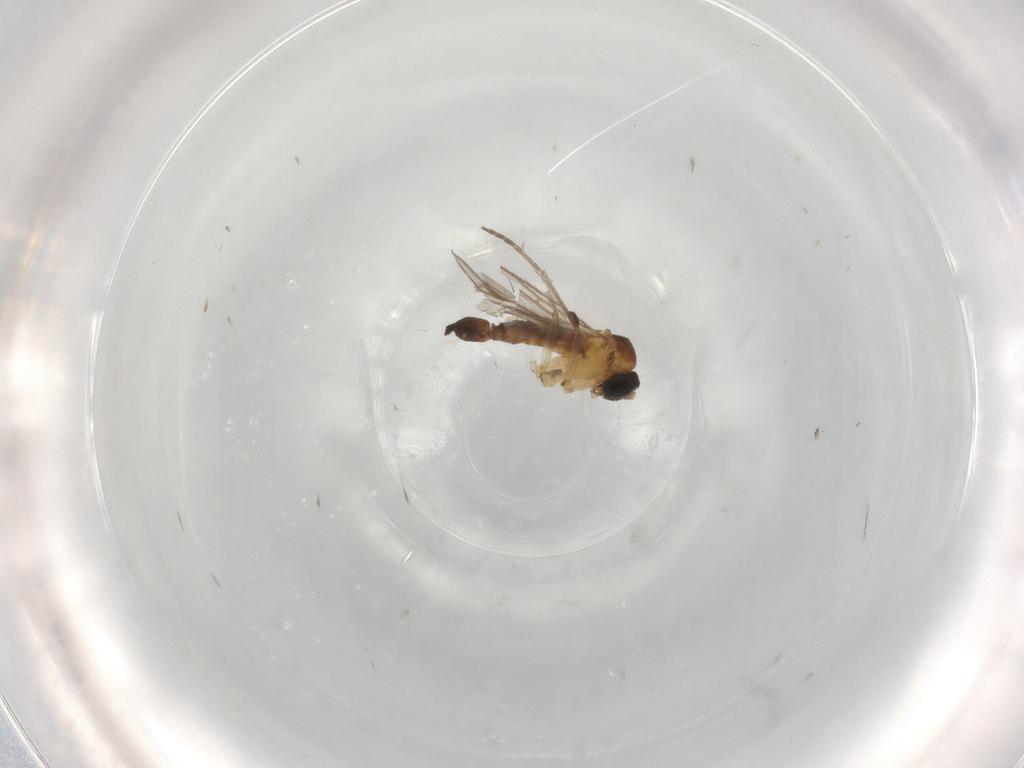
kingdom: Animalia
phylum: Arthropoda
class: Insecta
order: Diptera
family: Sciaridae
